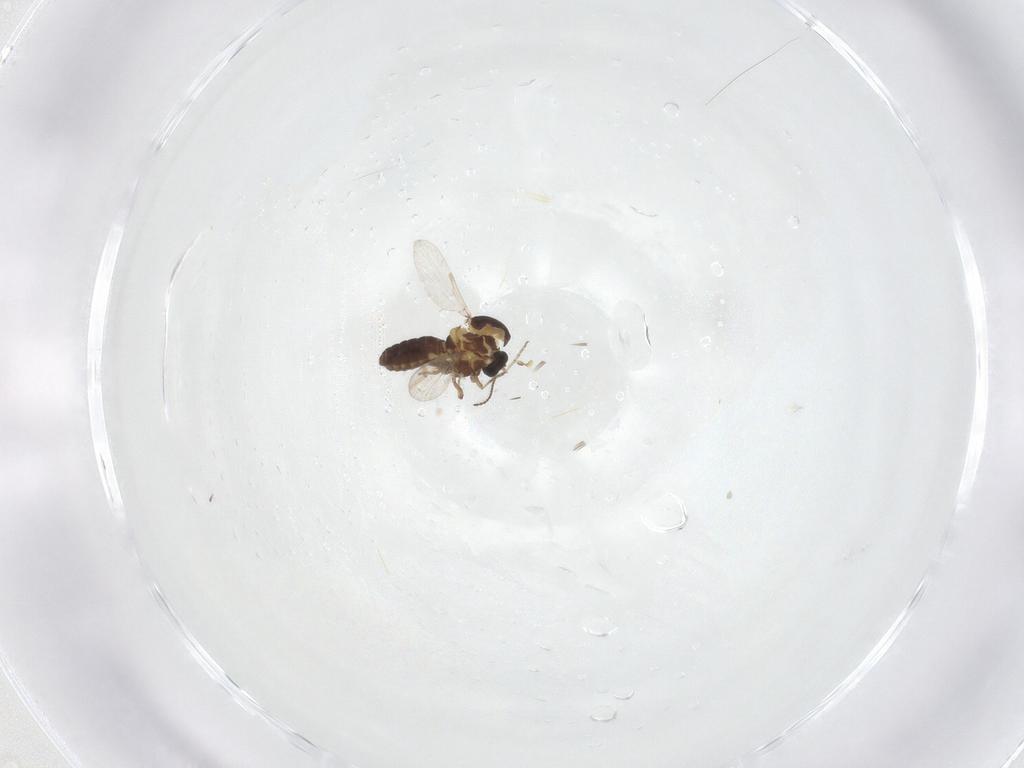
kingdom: Animalia
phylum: Arthropoda
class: Insecta
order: Diptera
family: Ceratopogonidae
